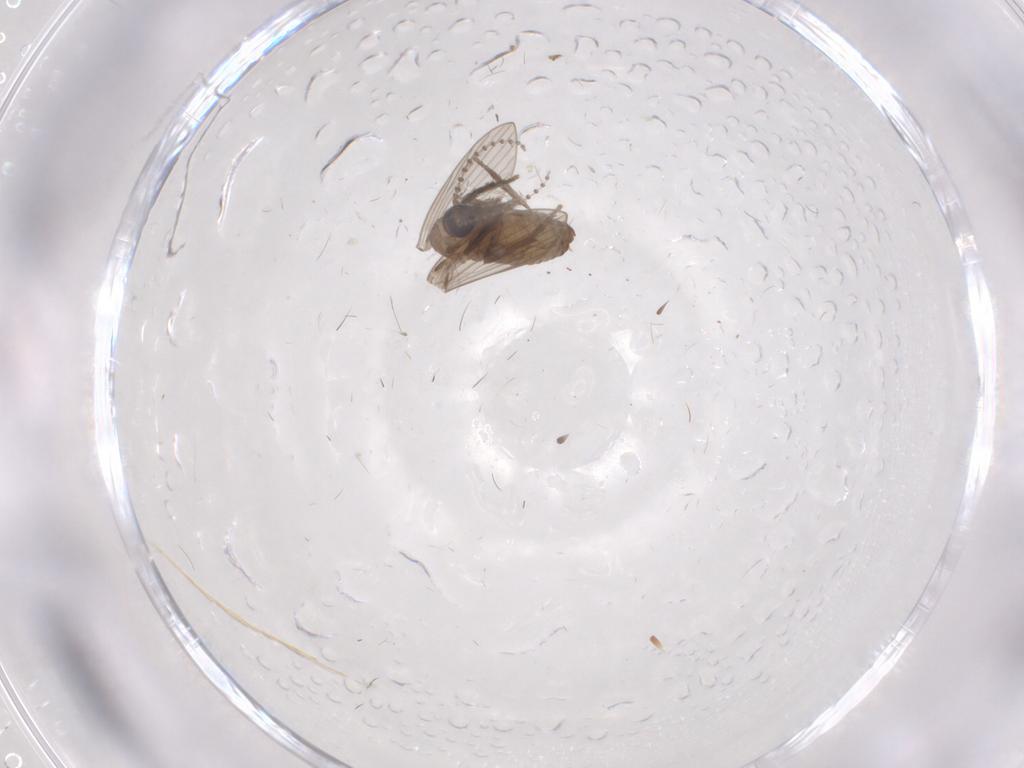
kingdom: Animalia
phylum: Arthropoda
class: Insecta
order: Diptera
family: Psychodidae
